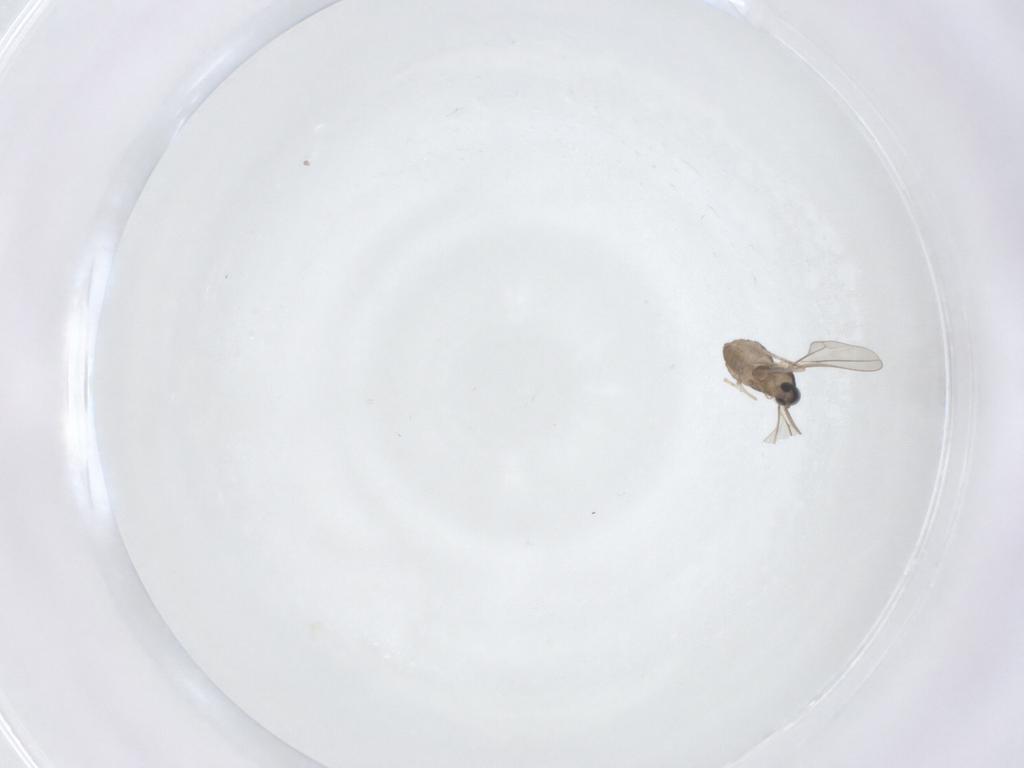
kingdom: Animalia
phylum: Arthropoda
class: Insecta
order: Diptera
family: Cecidomyiidae
